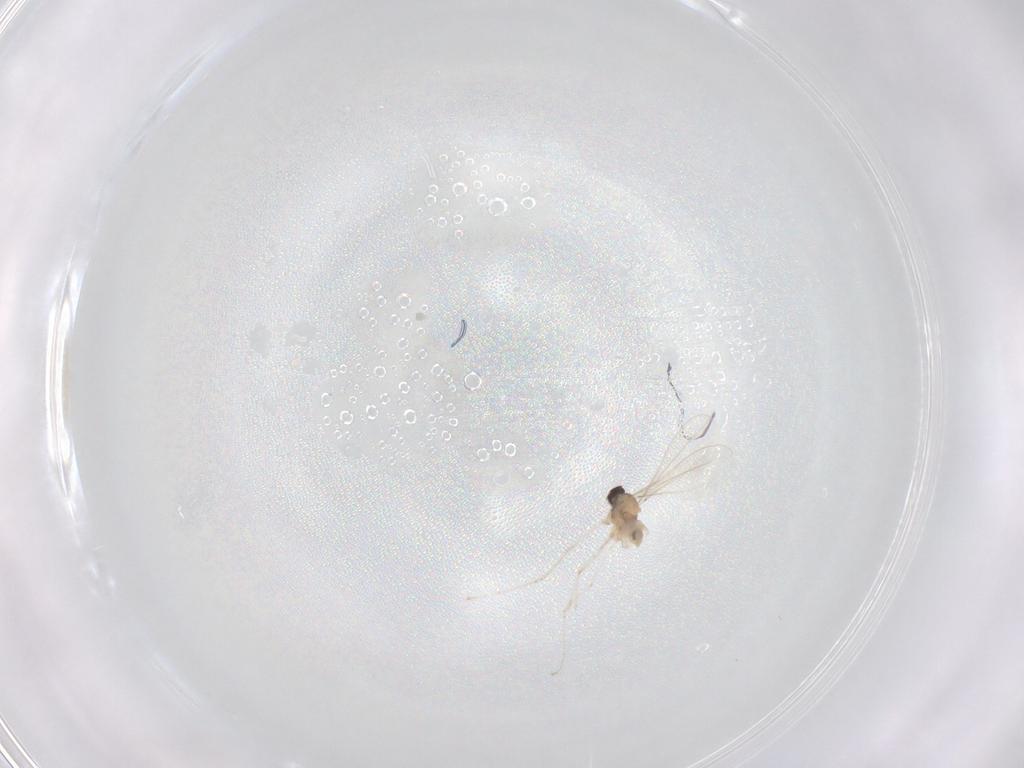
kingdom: Animalia
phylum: Arthropoda
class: Insecta
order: Diptera
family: Cecidomyiidae
